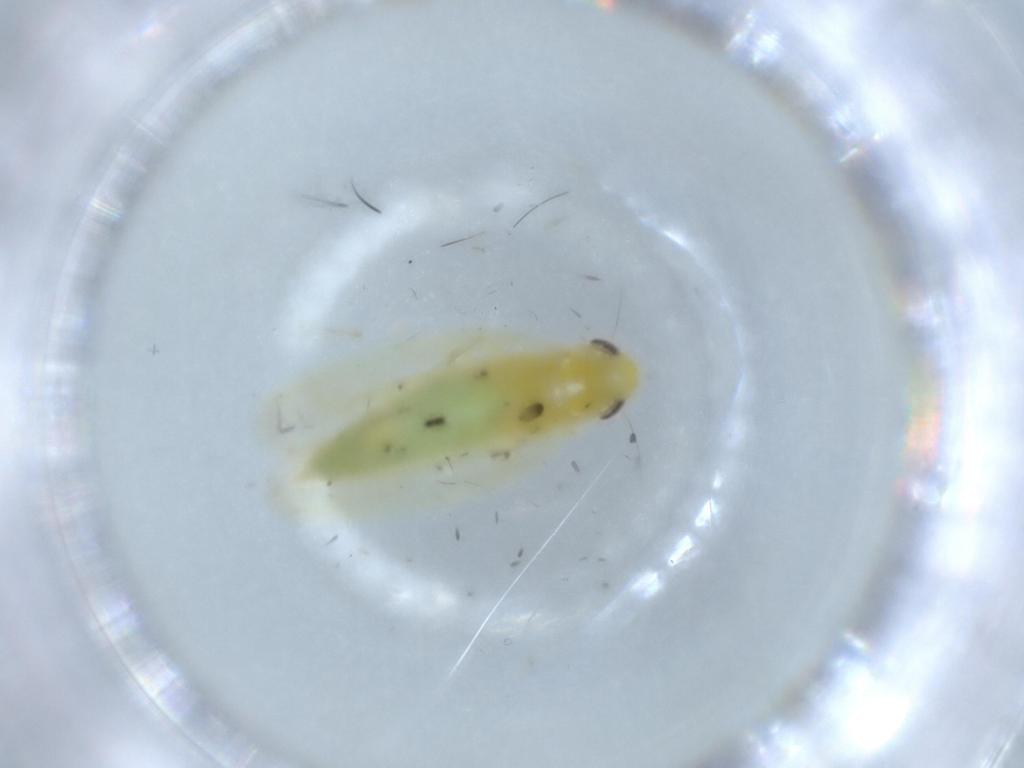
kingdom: Animalia
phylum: Arthropoda
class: Insecta
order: Hemiptera
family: Cicadellidae
